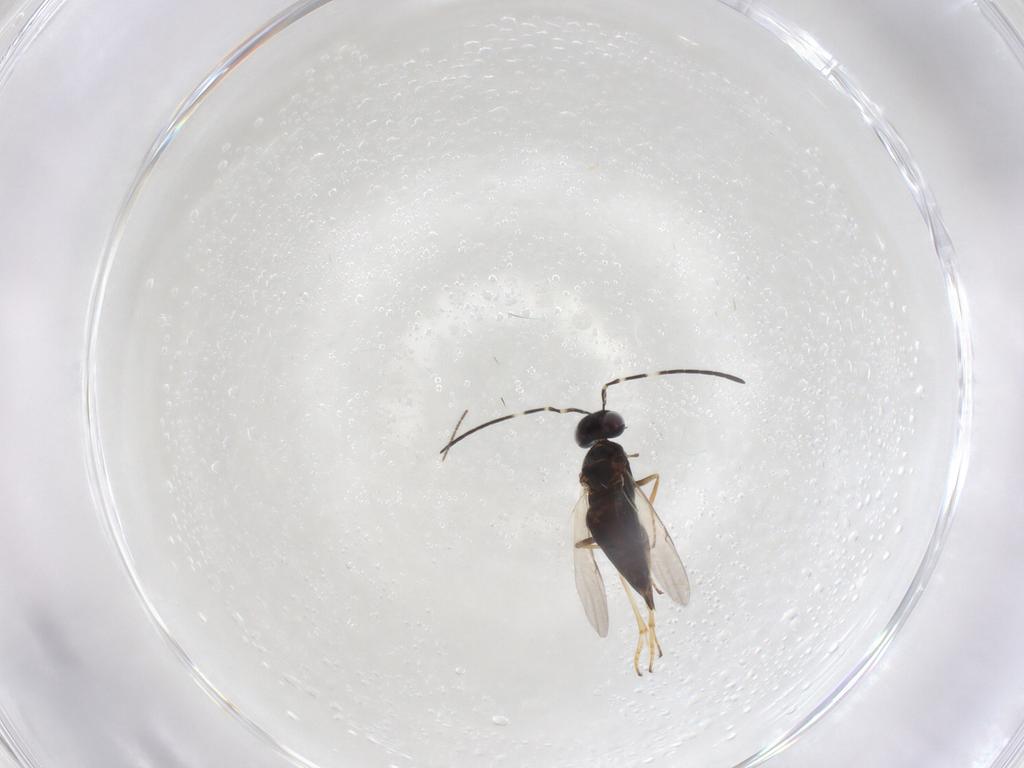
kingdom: Animalia
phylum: Arthropoda
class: Insecta
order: Hymenoptera
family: Encyrtidae
